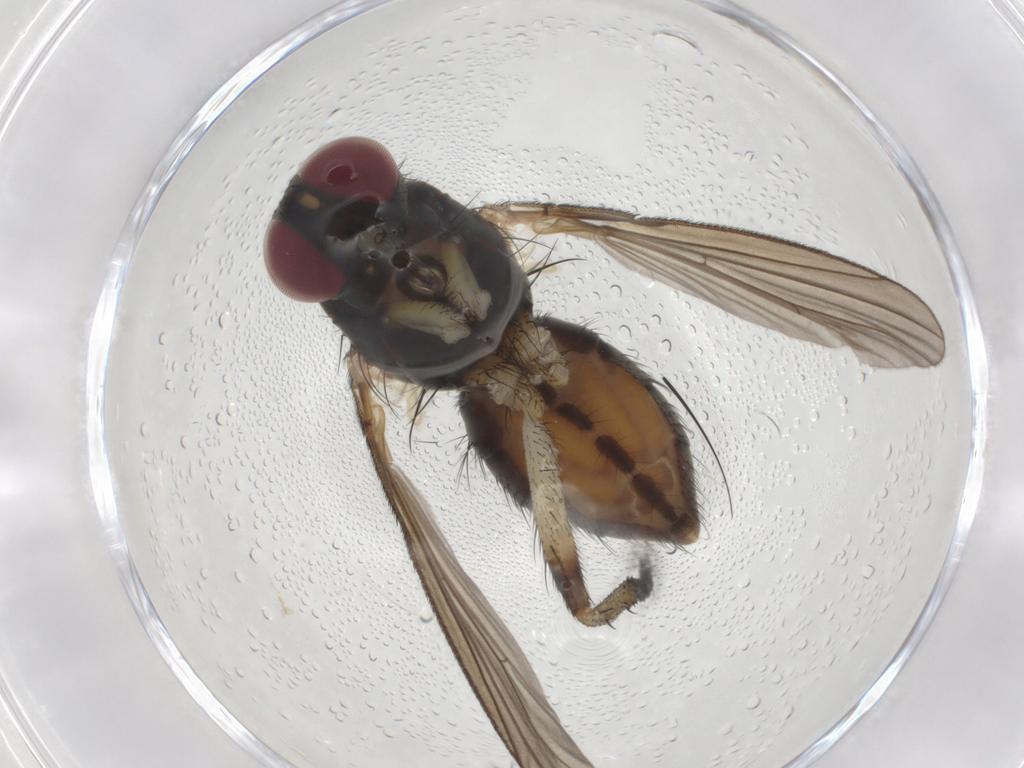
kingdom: Animalia
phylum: Arthropoda
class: Insecta
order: Diptera
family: Muscidae
